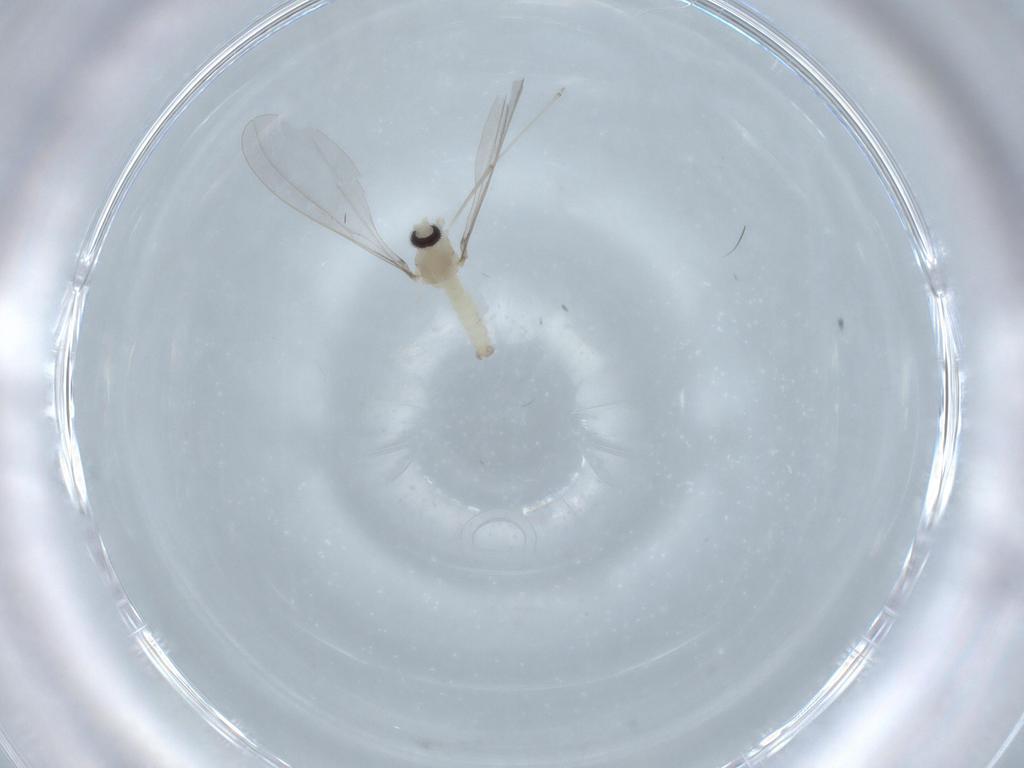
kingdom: Animalia
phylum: Arthropoda
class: Insecta
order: Diptera
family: Cecidomyiidae
